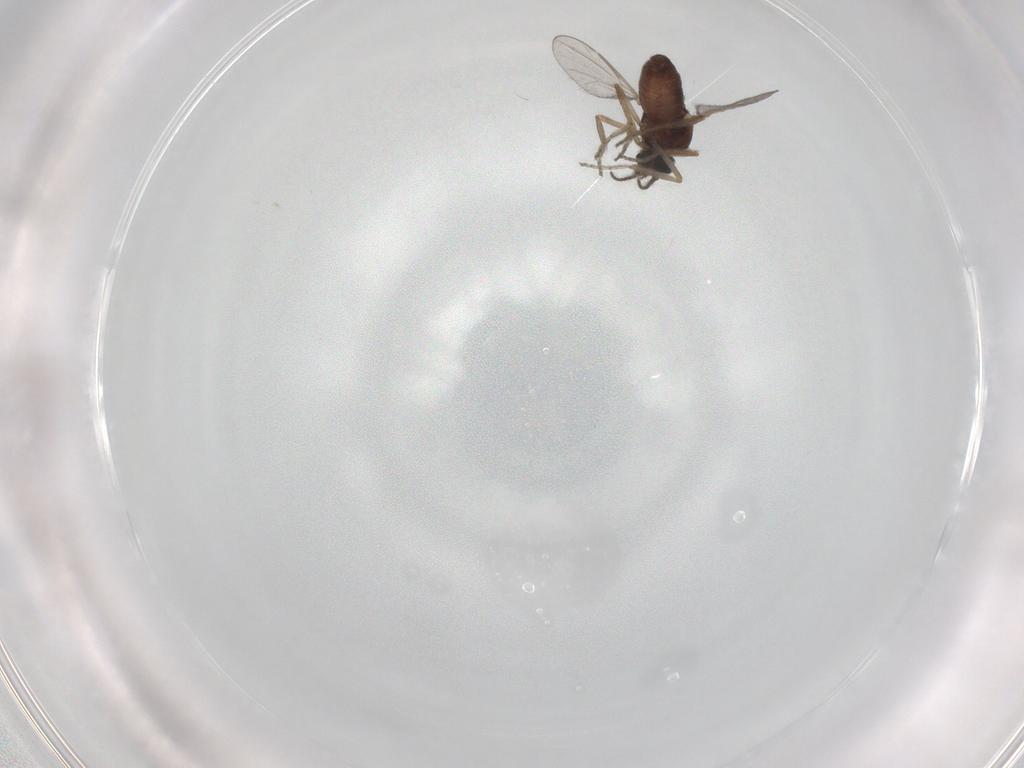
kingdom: Animalia
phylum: Arthropoda
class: Insecta
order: Diptera
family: Ceratopogonidae
